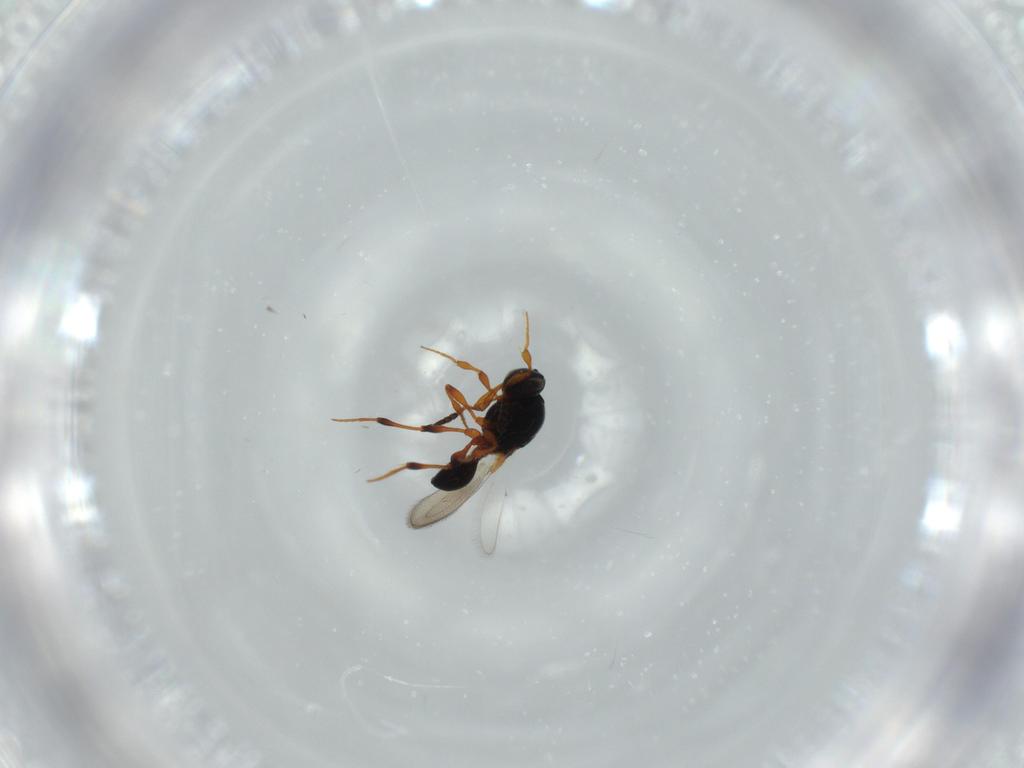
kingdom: Animalia
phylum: Arthropoda
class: Insecta
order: Hymenoptera
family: Platygastridae
